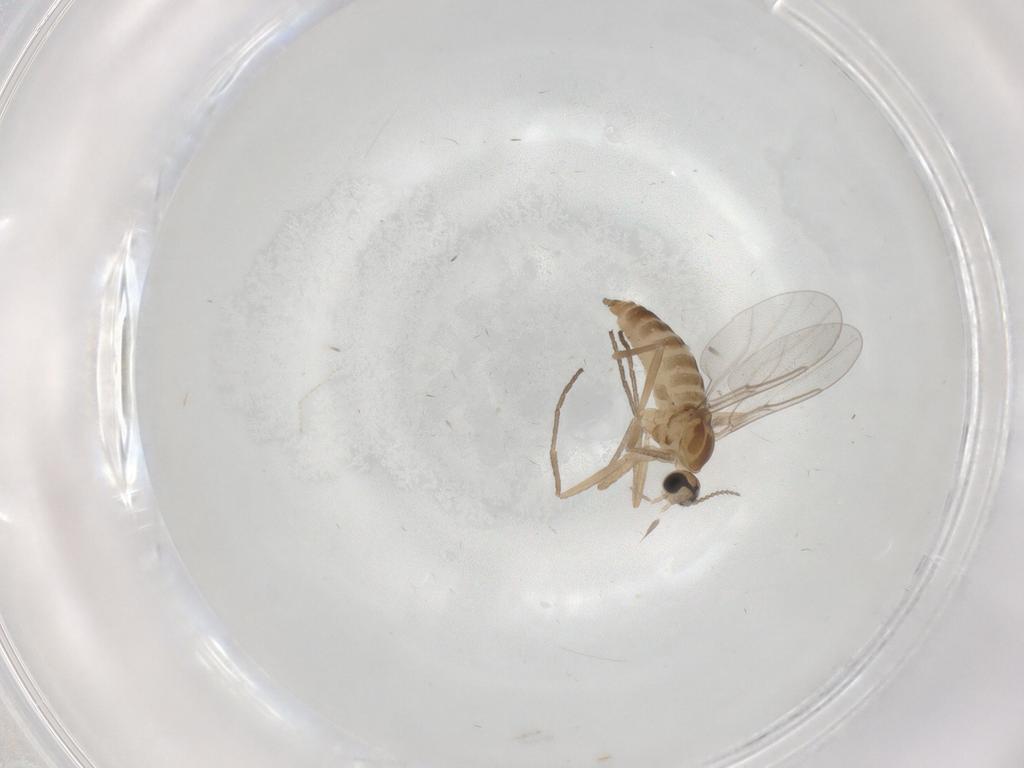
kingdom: Animalia
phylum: Arthropoda
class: Insecta
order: Diptera
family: Cecidomyiidae
